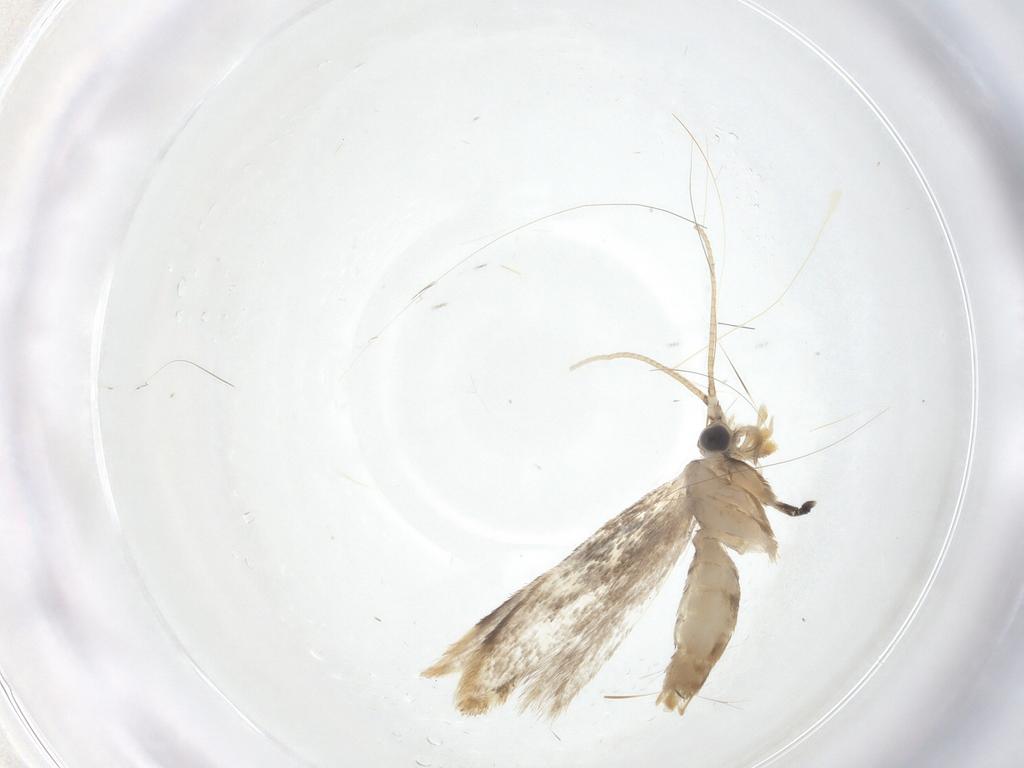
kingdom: Animalia
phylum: Arthropoda
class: Insecta
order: Lepidoptera
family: Dryadaulidae
